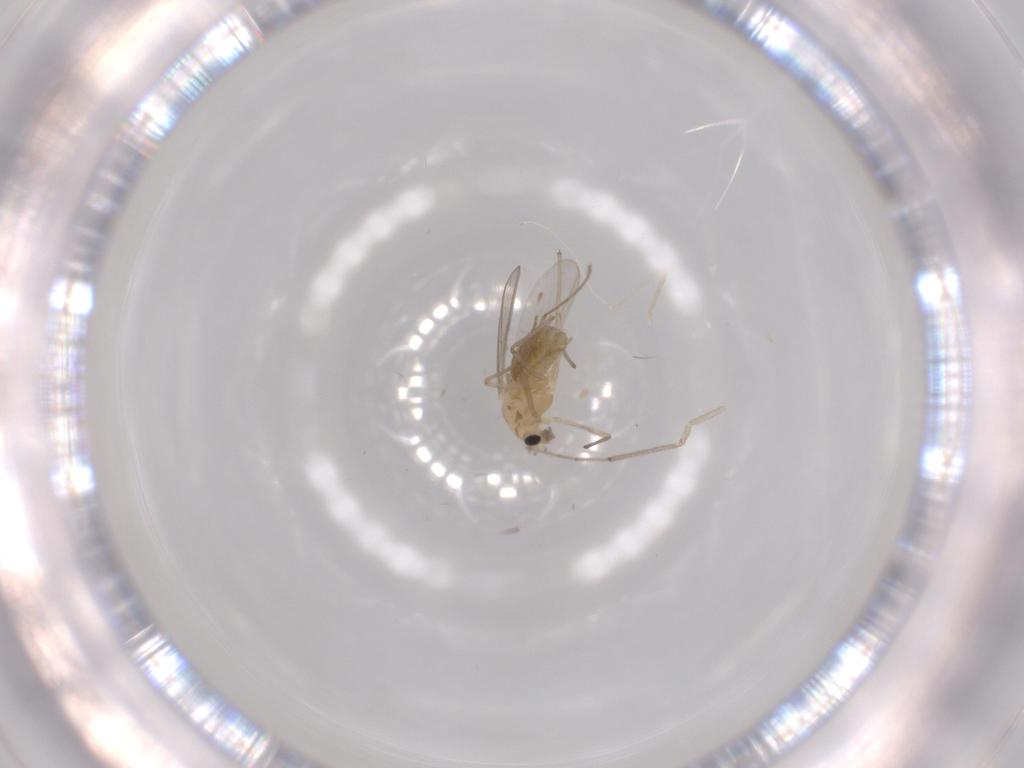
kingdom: Animalia
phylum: Arthropoda
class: Insecta
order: Diptera
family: Chironomidae
